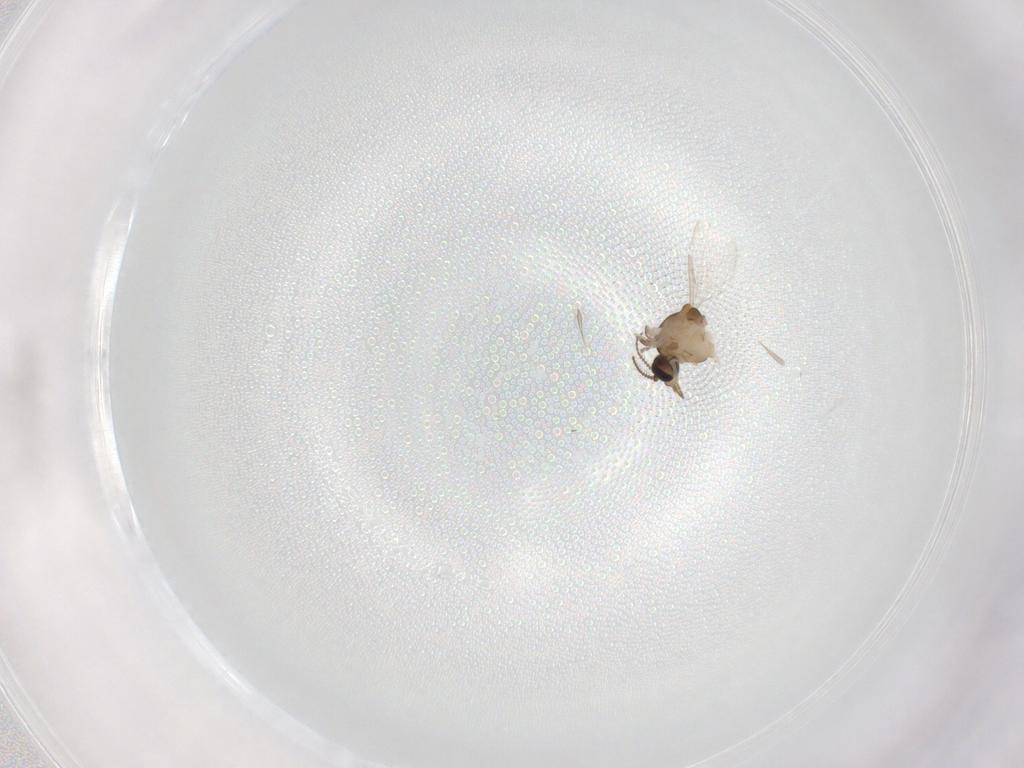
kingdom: Animalia
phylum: Arthropoda
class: Insecta
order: Diptera
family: Ceratopogonidae
